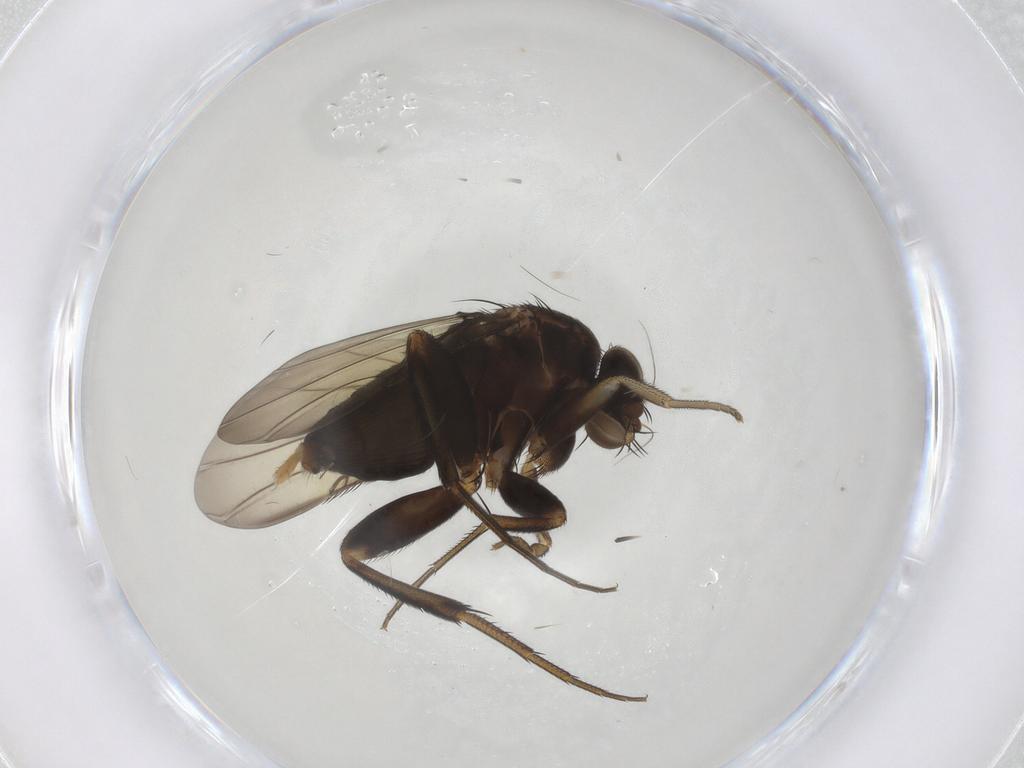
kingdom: Animalia
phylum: Arthropoda
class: Insecta
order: Diptera
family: Phoridae
